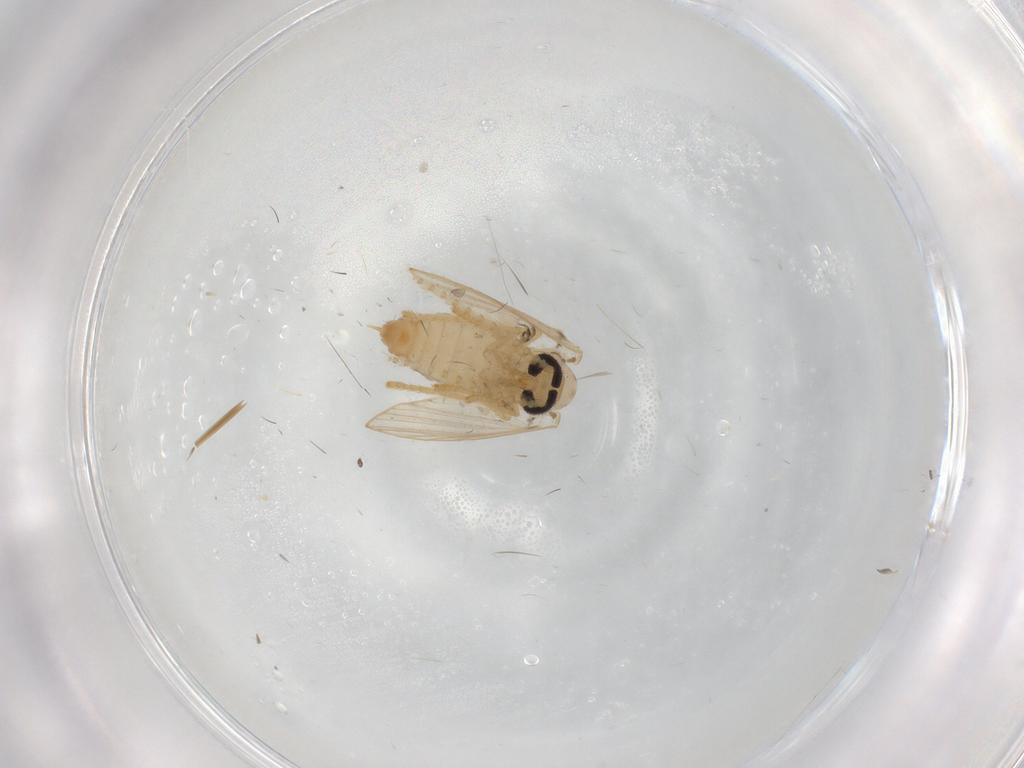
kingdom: Animalia
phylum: Arthropoda
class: Insecta
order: Diptera
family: Psychodidae
